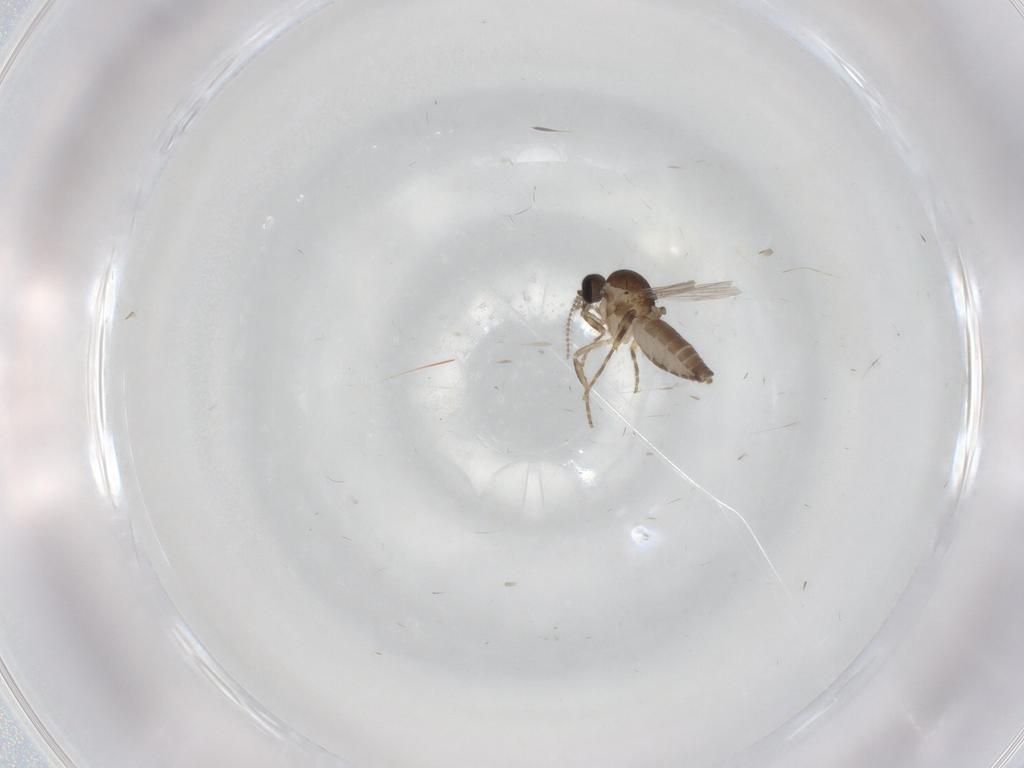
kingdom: Animalia
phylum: Arthropoda
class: Insecta
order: Diptera
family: Ceratopogonidae
